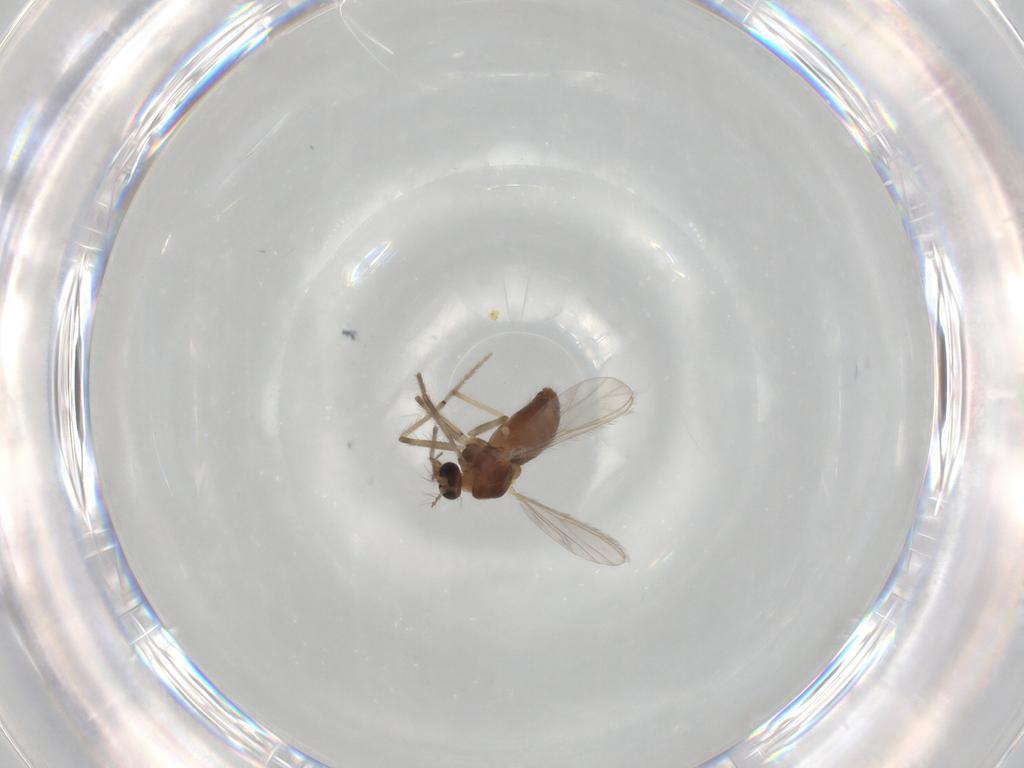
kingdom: Animalia
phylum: Arthropoda
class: Insecta
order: Diptera
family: Chironomidae
